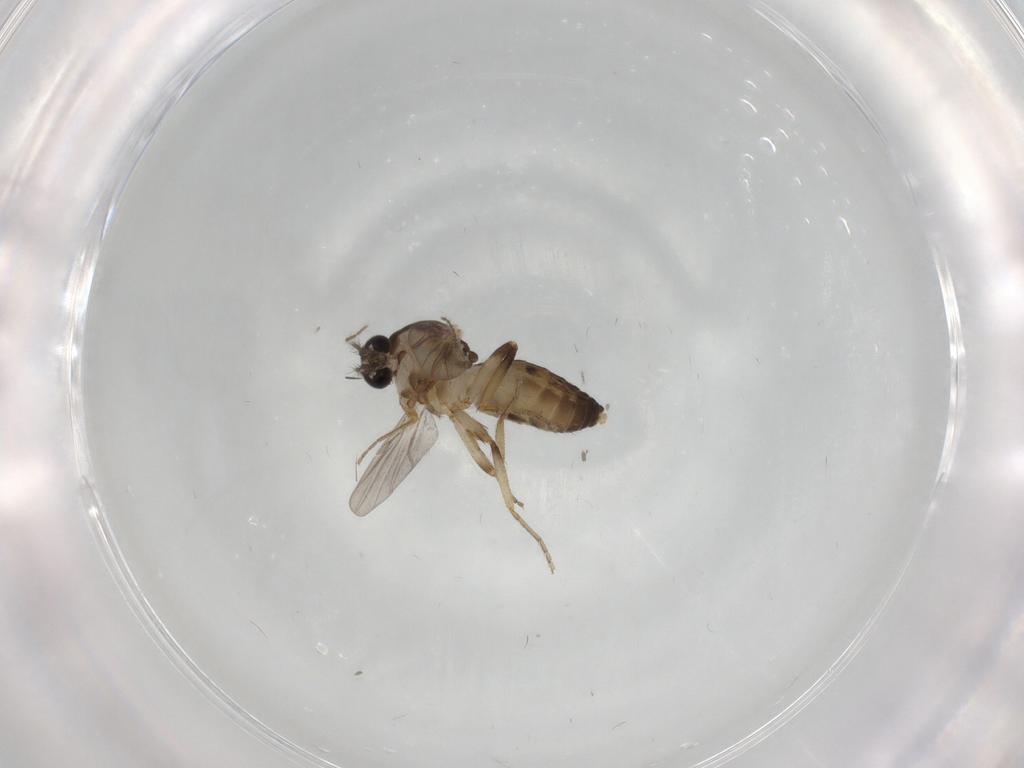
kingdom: Animalia
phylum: Arthropoda
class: Insecta
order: Diptera
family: Ceratopogonidae
